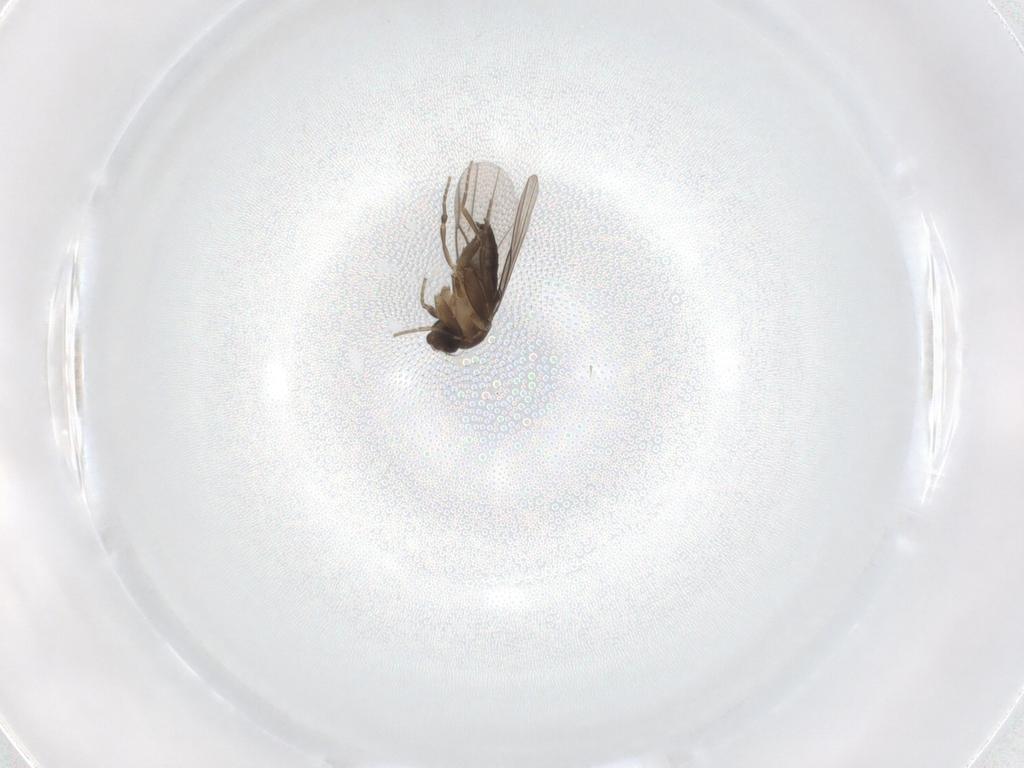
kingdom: Animalia
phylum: Arthropoda
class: Insecta
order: Diptera
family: Phoridae
